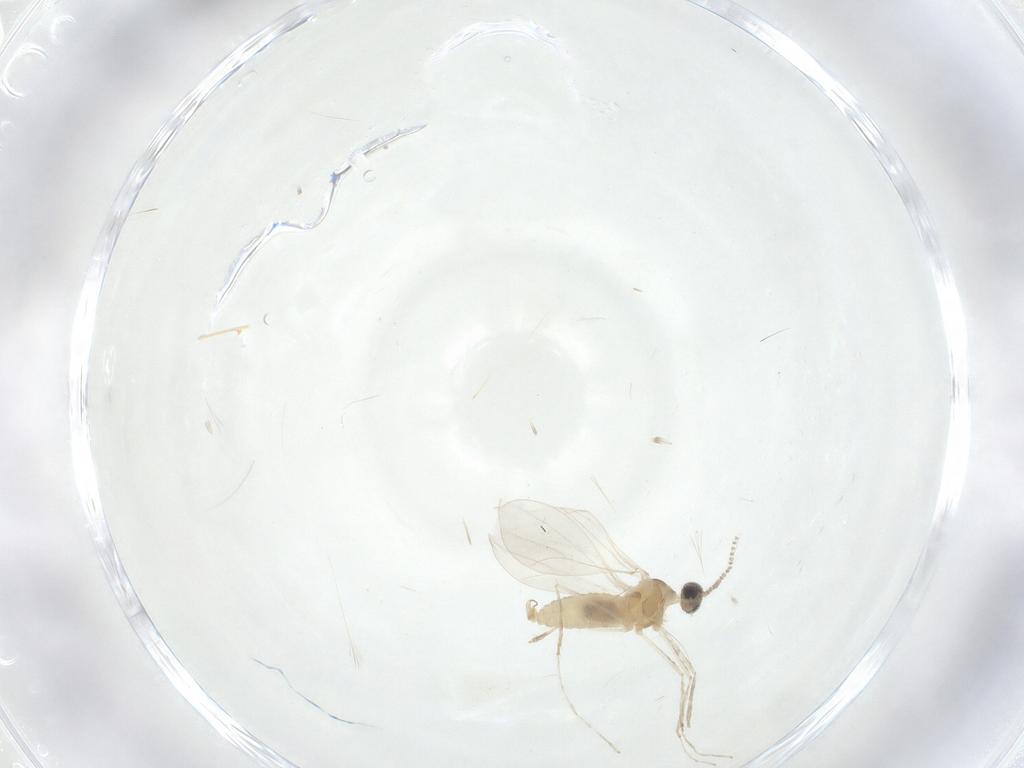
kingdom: Animalia
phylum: Arthropoda
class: Insecta
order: Diptera
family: Cecidomyiidae
